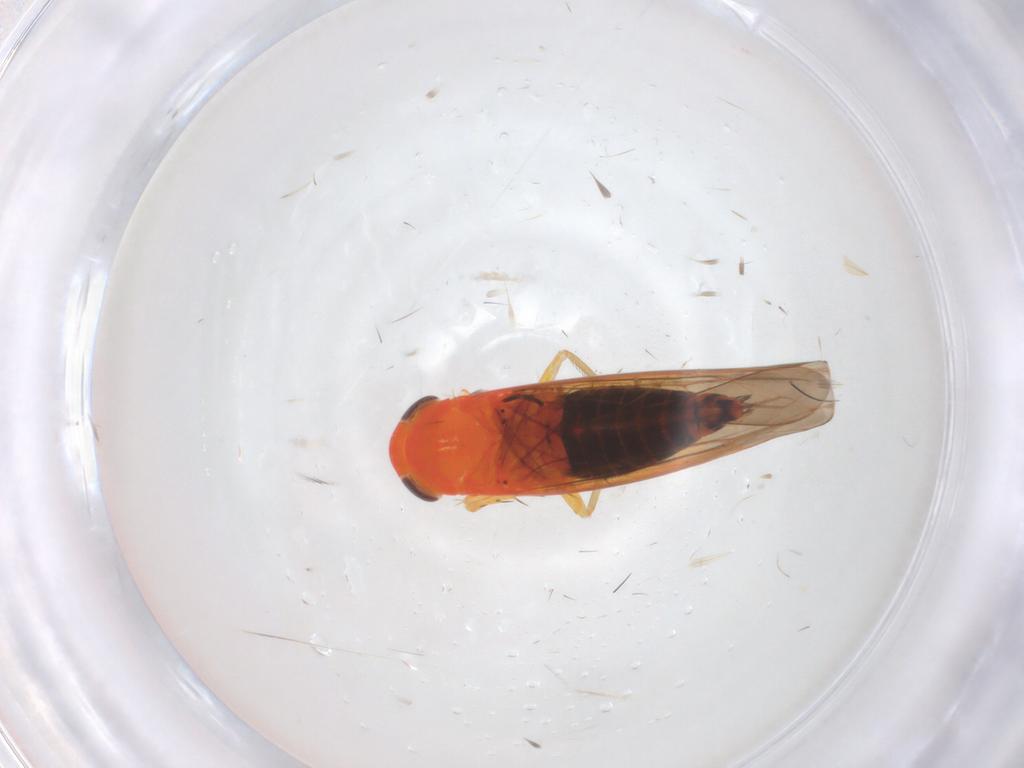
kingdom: Animalia
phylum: Arthropoda
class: Insecta
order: Hemiptera
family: Cicadellidae
